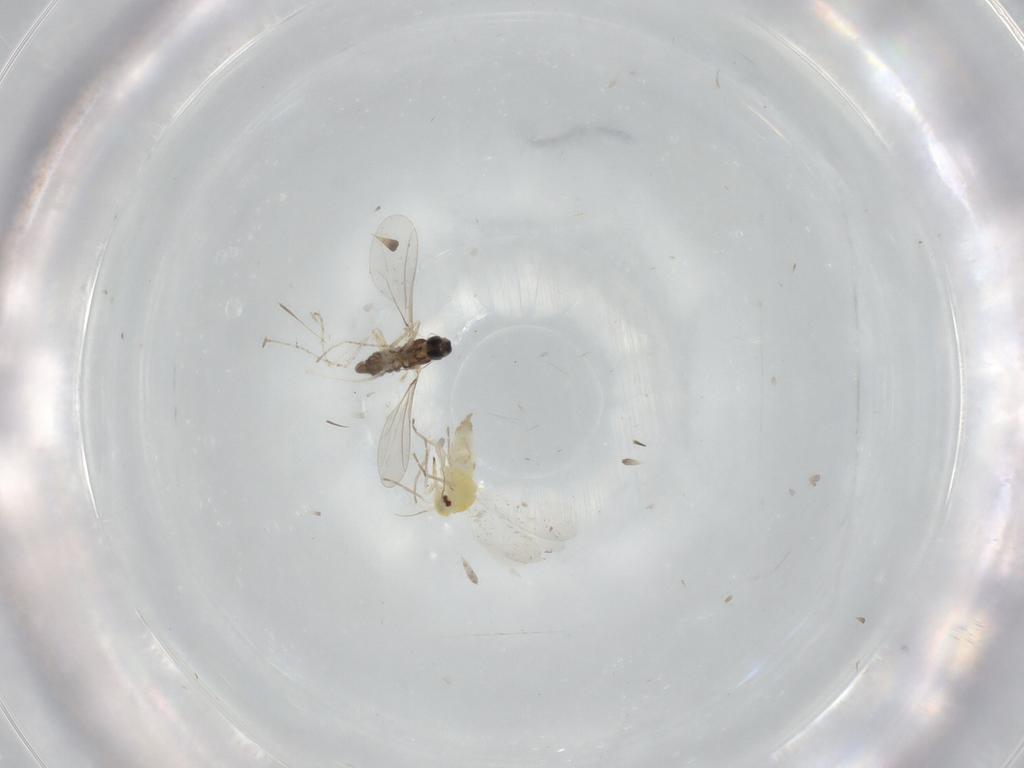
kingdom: Animalia
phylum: Arthropoda
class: Insecta
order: Diptera
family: Cecidomyiidae
